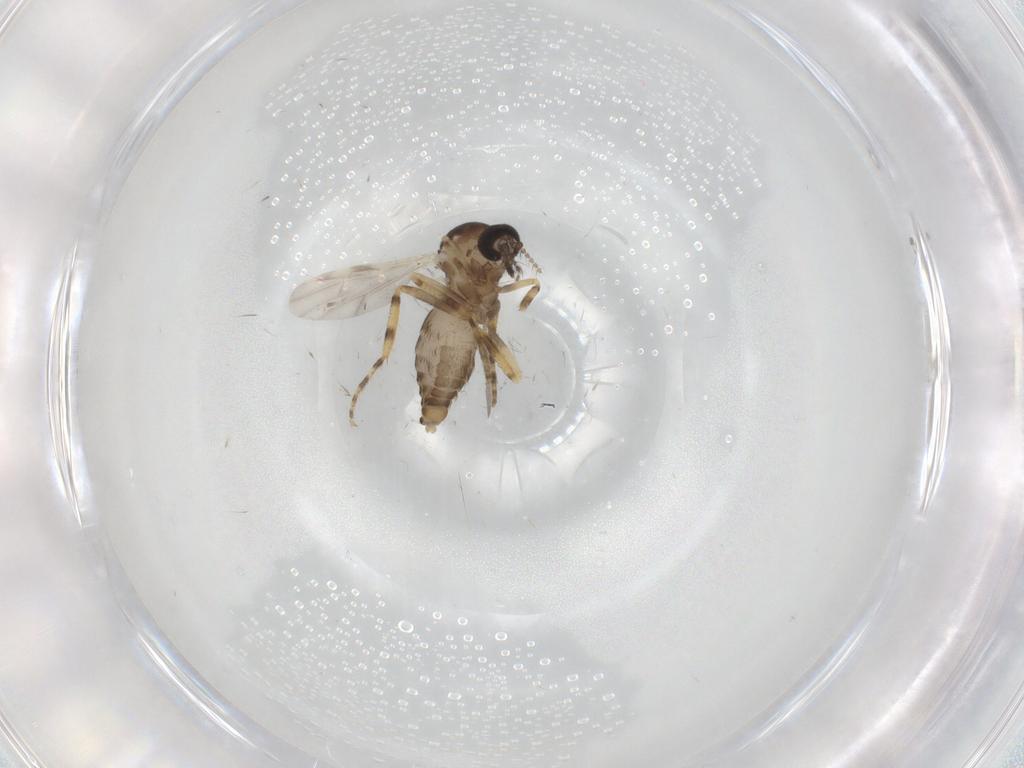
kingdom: Animalia
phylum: Arthropoda
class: Insecta
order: Diptera
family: Ceratopogonidae
